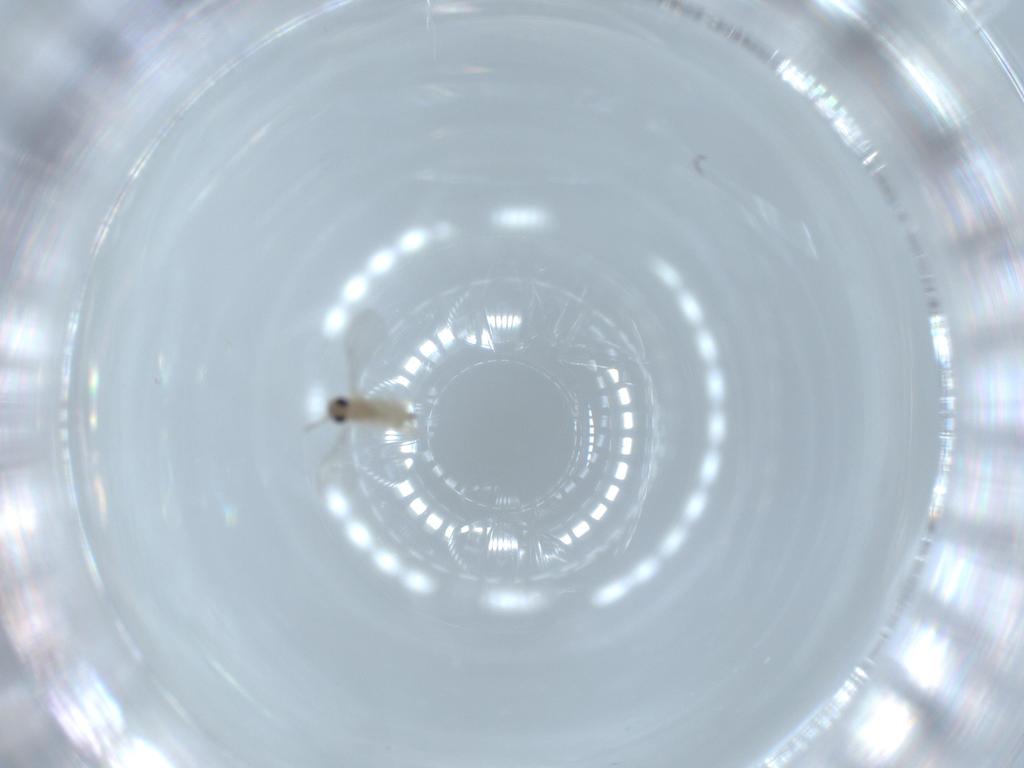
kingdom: Animalia
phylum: Arthropoda
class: Insecta
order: Diptera
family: Cecidomyiidae
